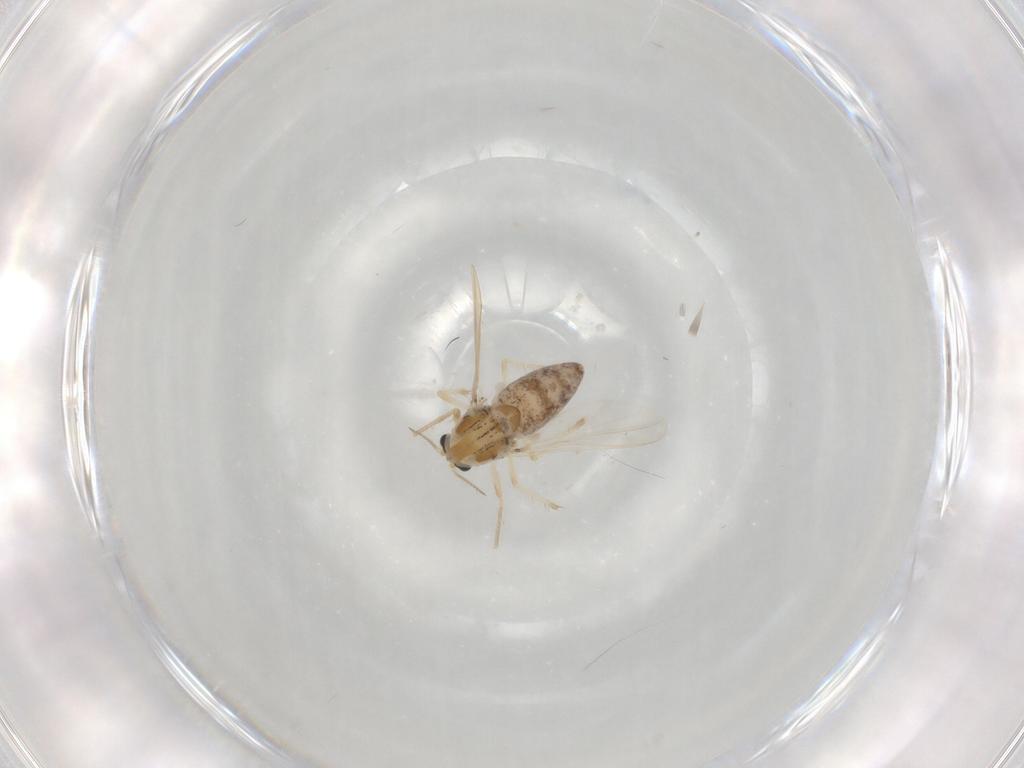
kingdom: Animalia
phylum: Arthropoda
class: Insecta
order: Diptera
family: Chironomidae
